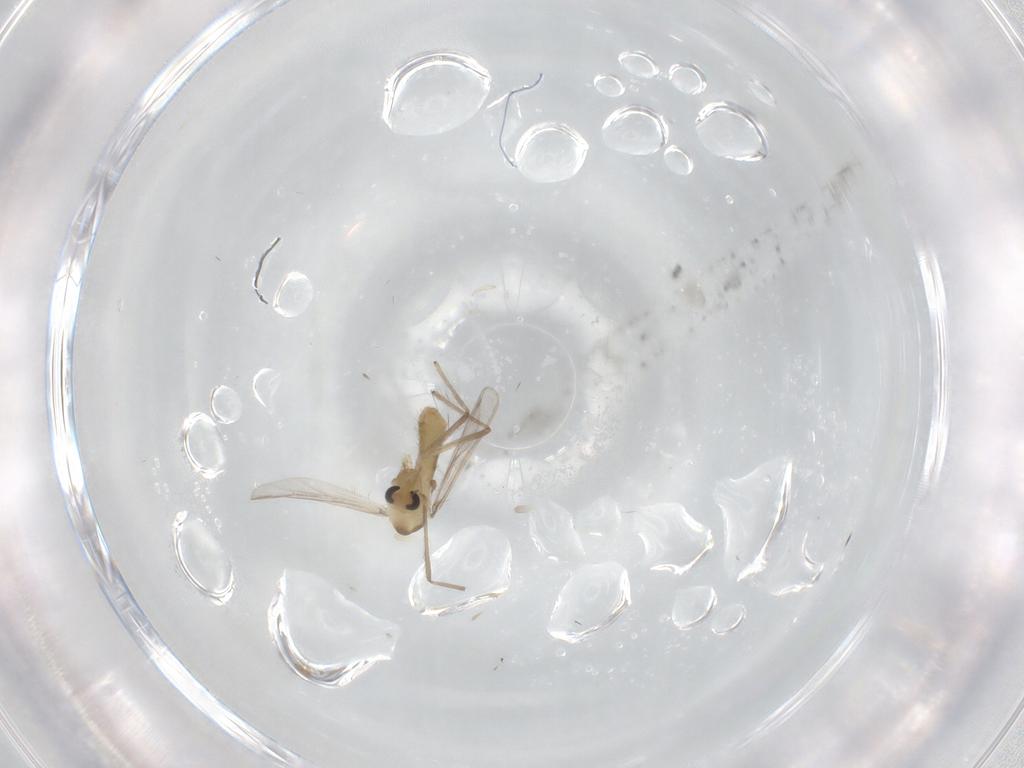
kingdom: Animalia
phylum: Arthropoda
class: Insecta
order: Diptera
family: Chironomidae
